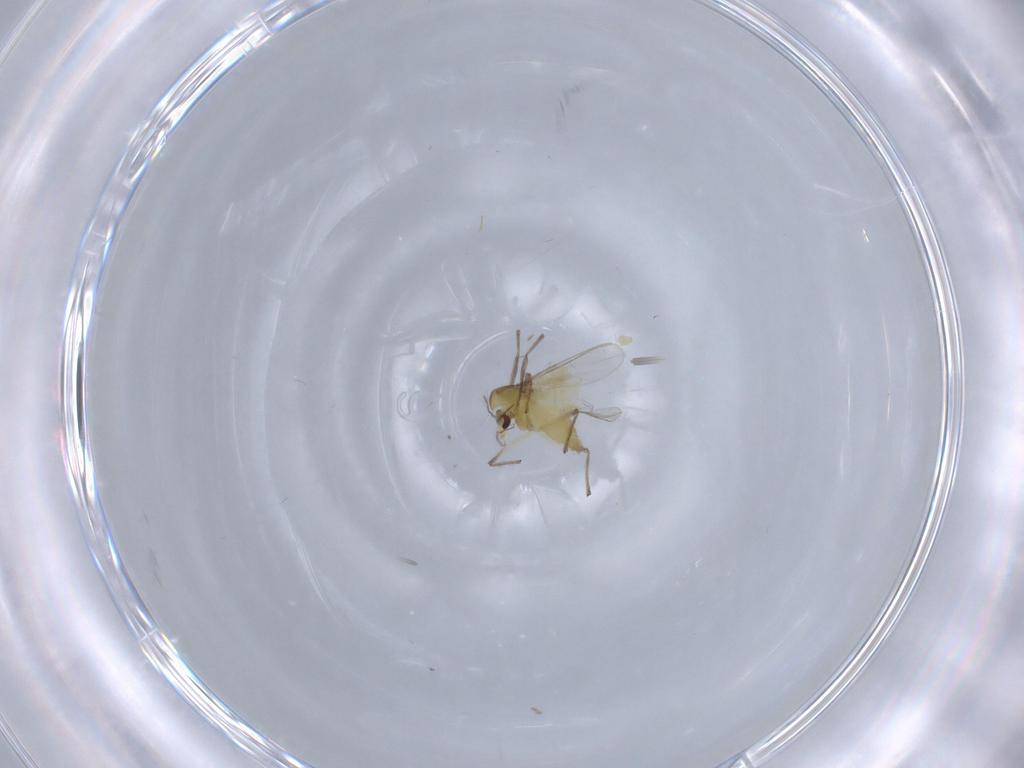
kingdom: Animalia
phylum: Arthropoda
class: Insecta
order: Diptera
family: Chironomidae
